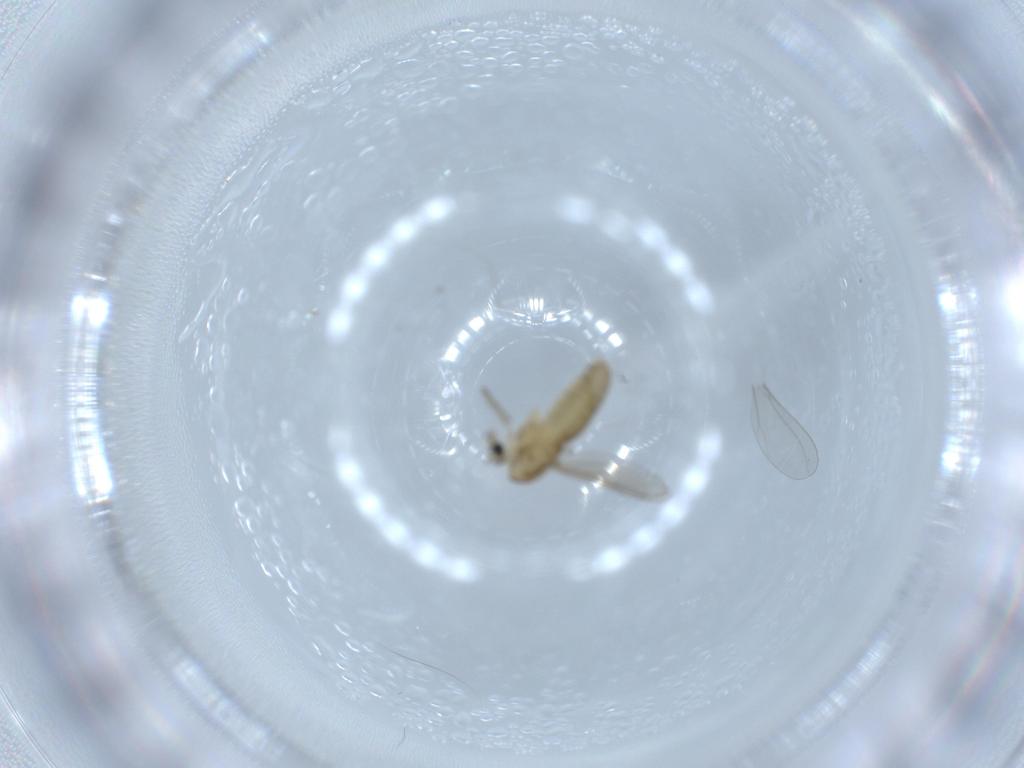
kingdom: Animalia
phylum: Arthropoda
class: Insecta
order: Diptera
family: Chironomidae
